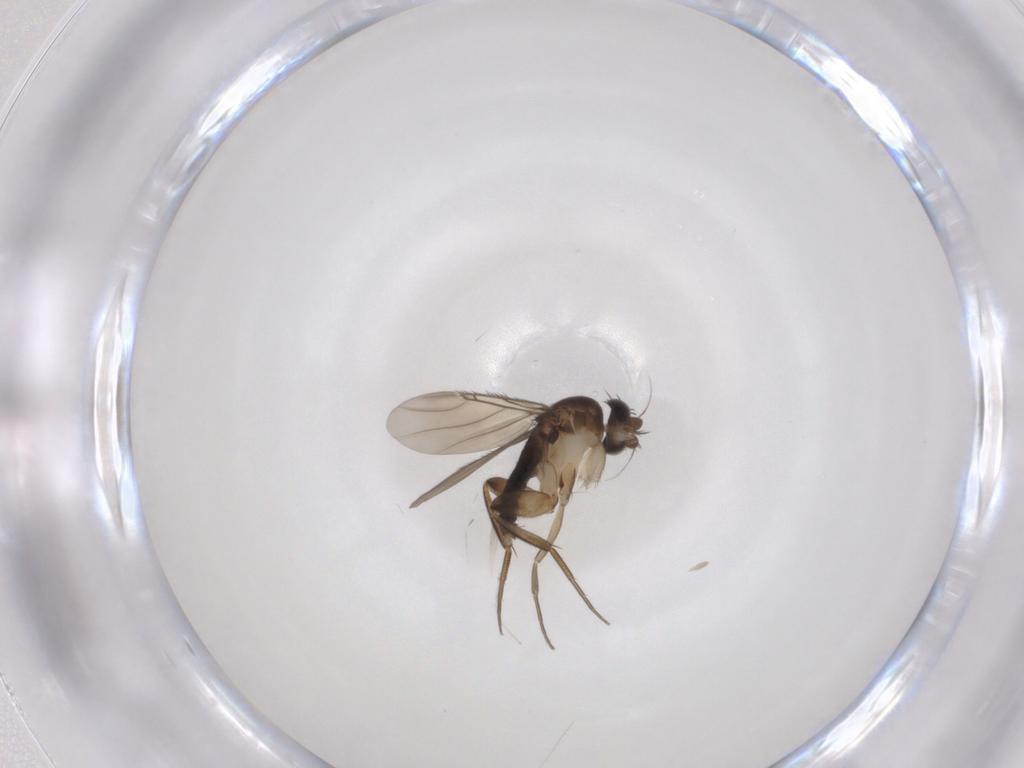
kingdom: Animalia
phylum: Arthropoda
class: Insecta
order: Diptera
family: Phoridae
